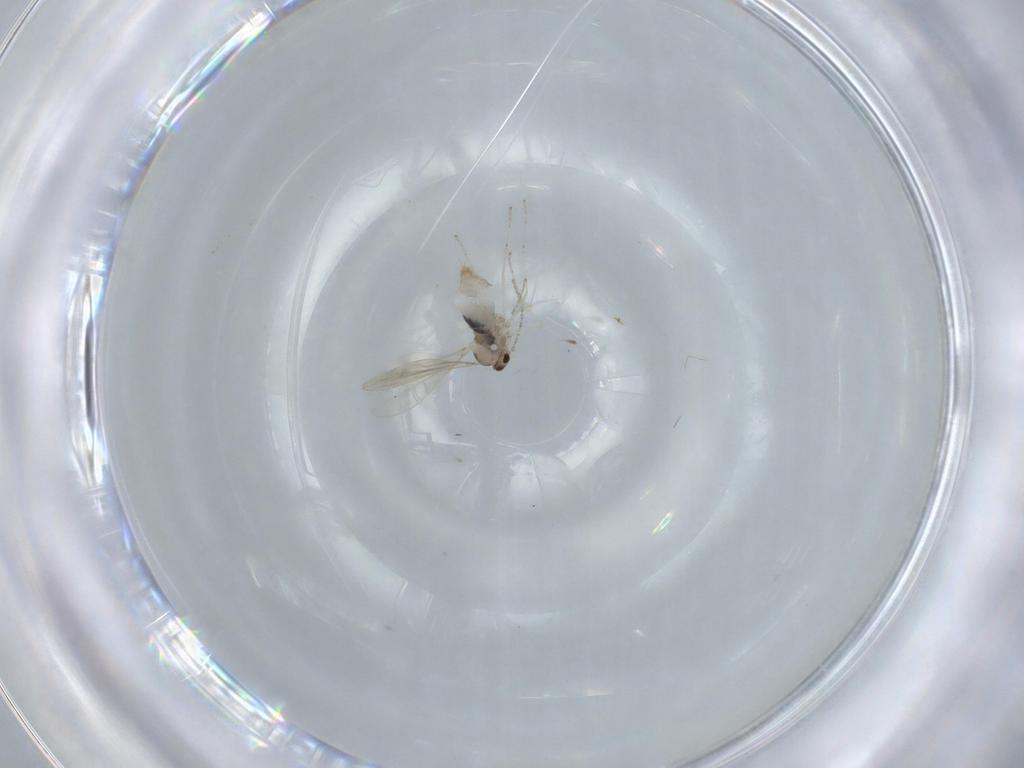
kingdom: Animalia
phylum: Arthropoda
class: Insecta
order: Diptera
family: Cecidomyiidae
